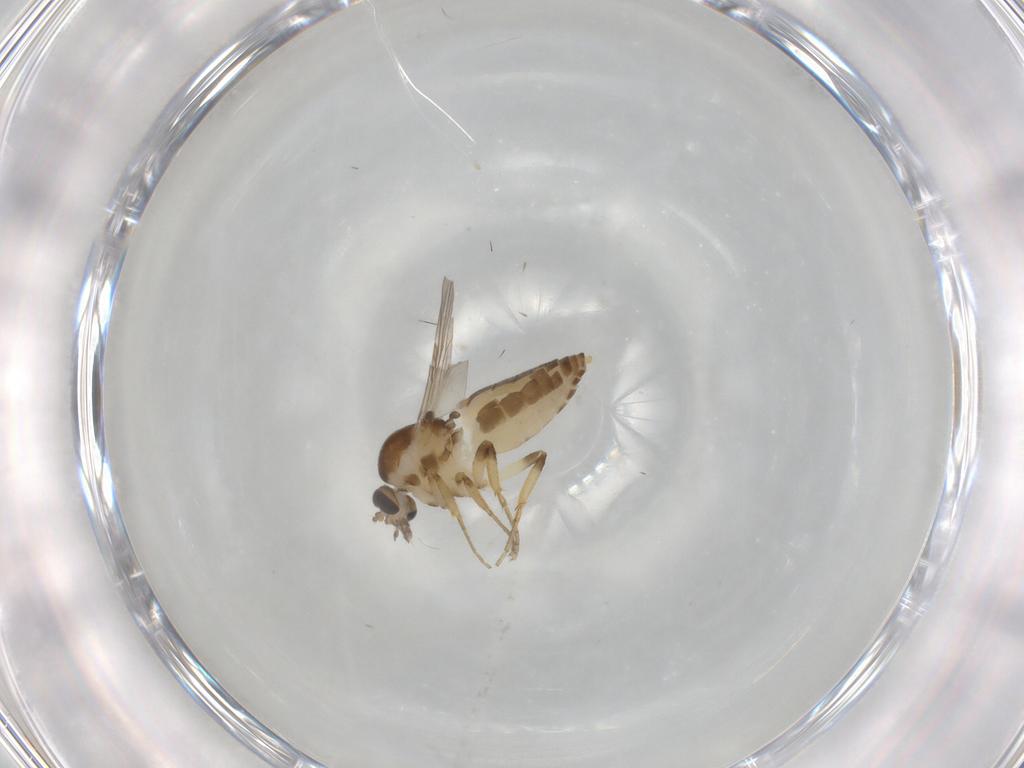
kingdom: Animalia
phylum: Arthropoda
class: Insecta
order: Diptera
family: Ceratopogonidae
